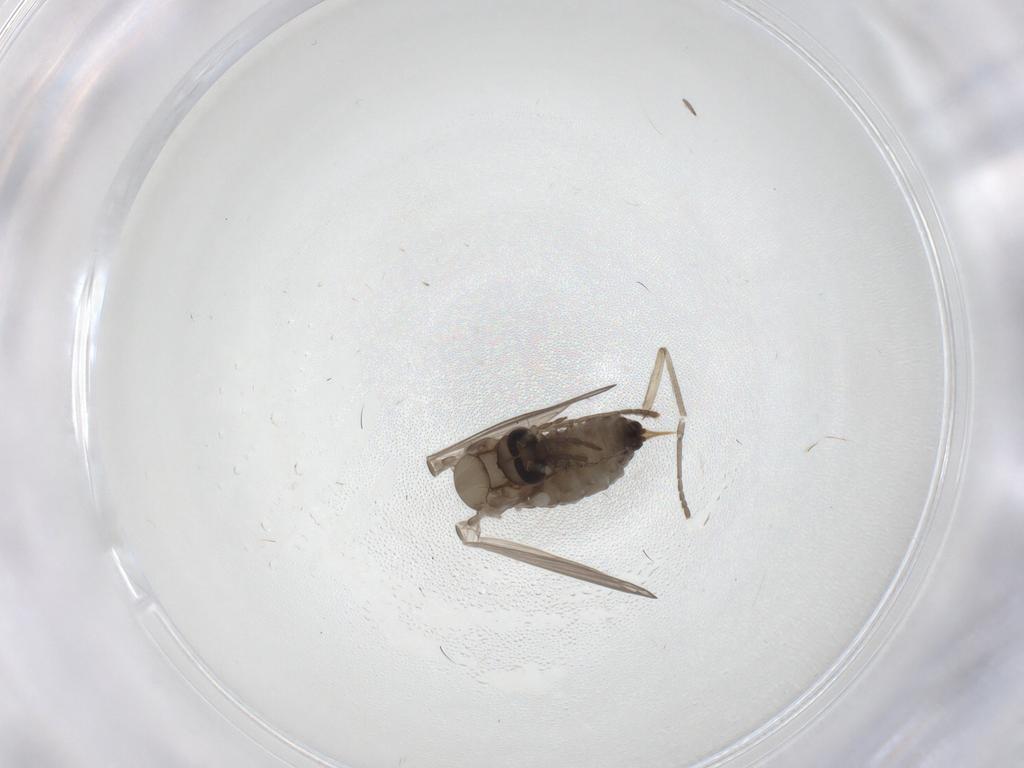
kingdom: Animalia
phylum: Arthropoda
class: Insecta
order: Diptera
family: Psychodidae
